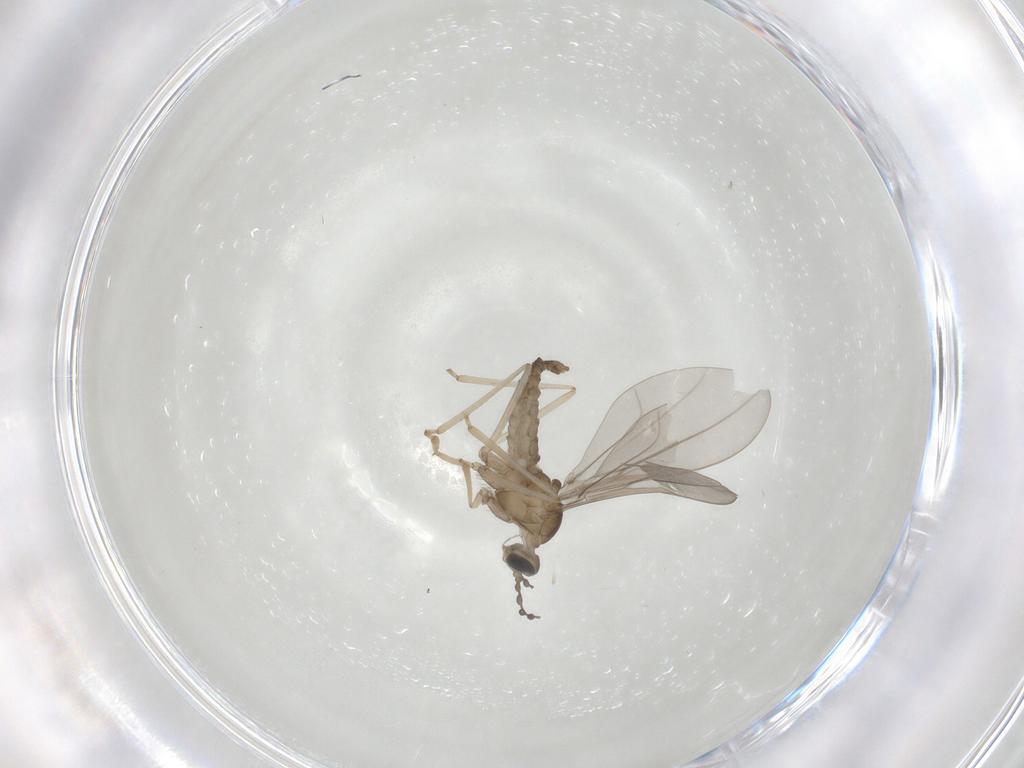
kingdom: Animalia
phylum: Arthropoda
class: Insecta
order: Diptera
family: Cecidomyiidae
